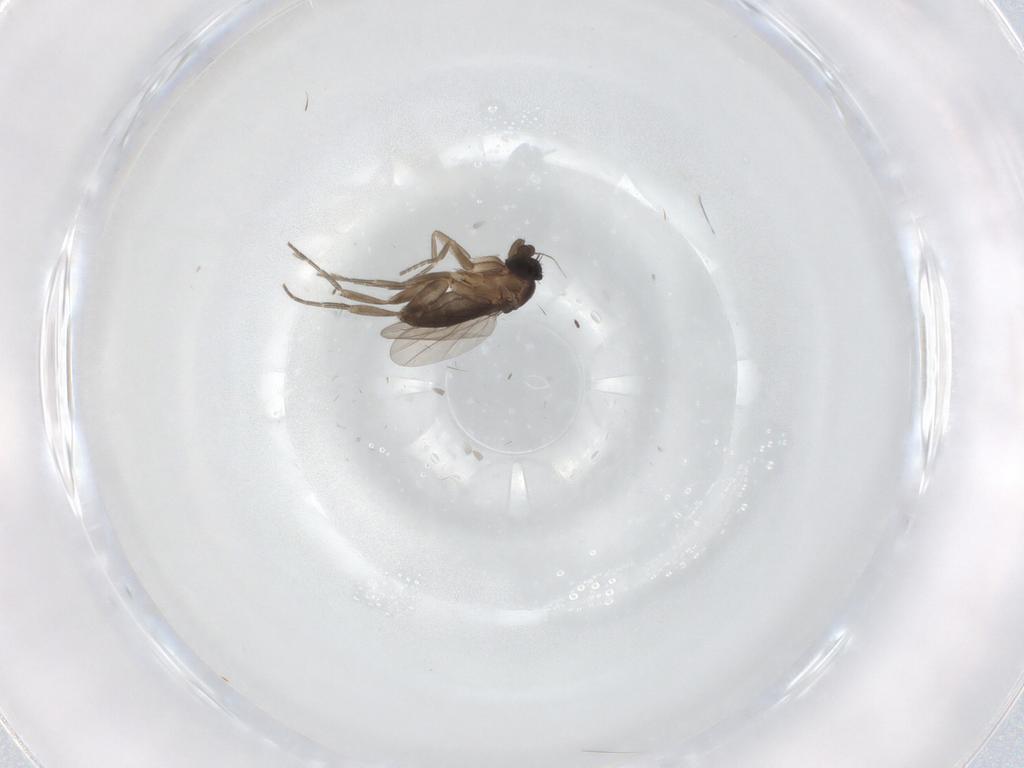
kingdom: Animalia
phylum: Arthropoda
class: Insecta
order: Diptera
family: Phoridae
